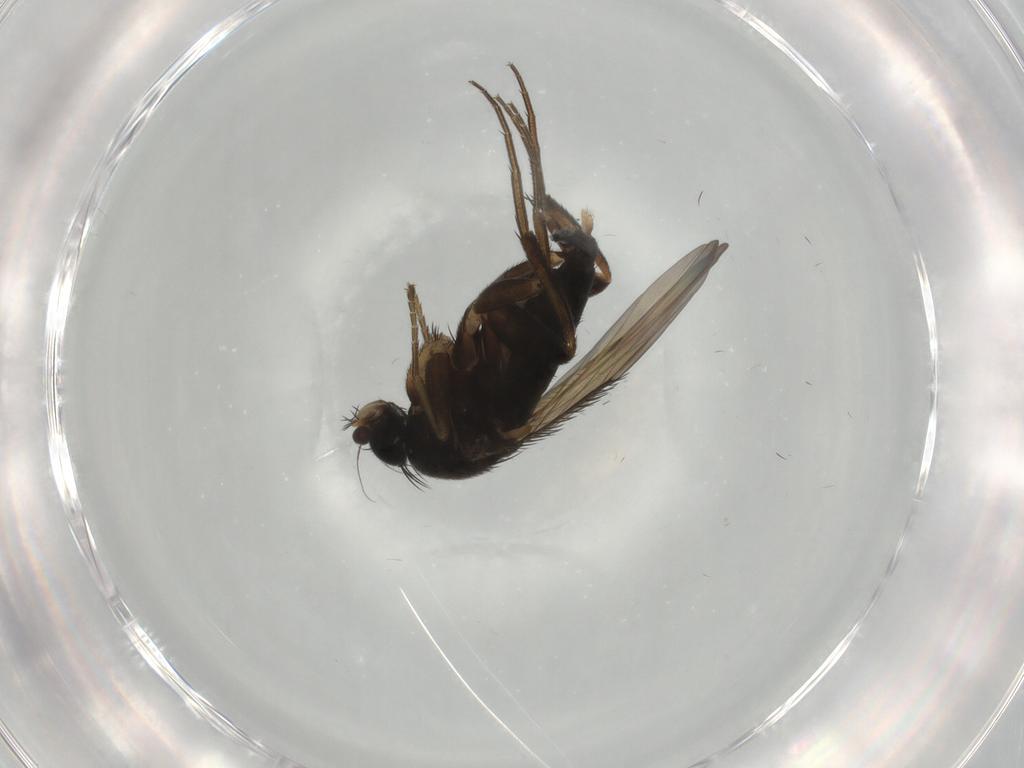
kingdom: Animalia
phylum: Arthropoda
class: Insecta
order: Diptera
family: Phoridae
